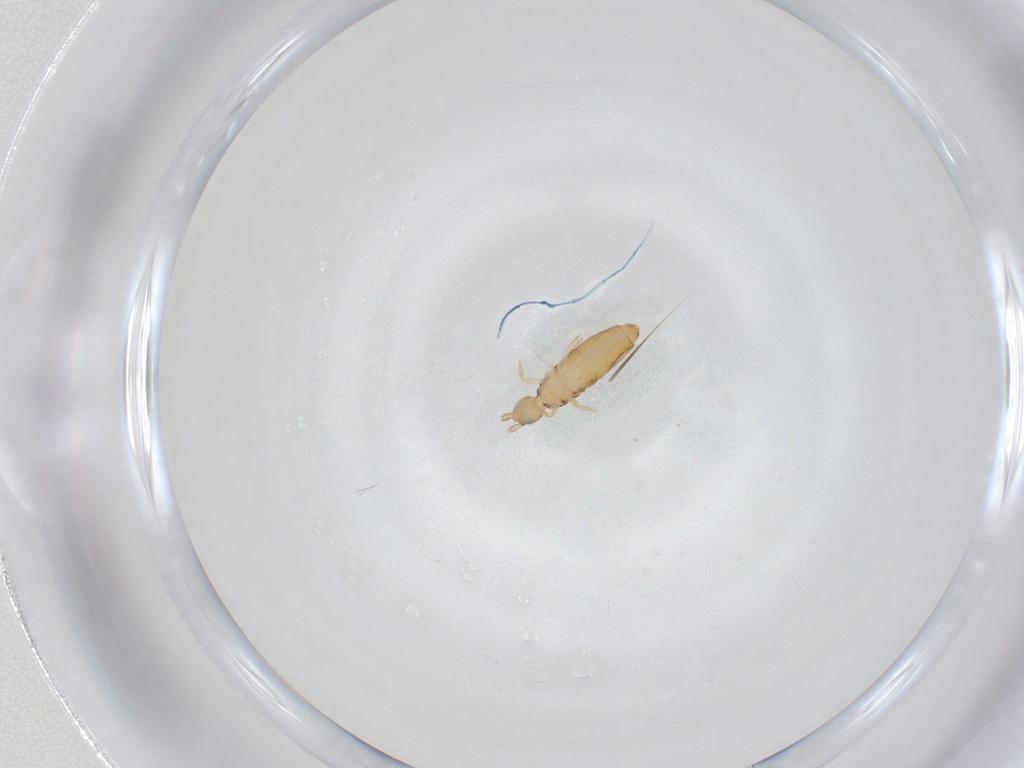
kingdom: Animalia
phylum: Arthropoda
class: Collembola
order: Entomobryomorpha
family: Entomobryidae
